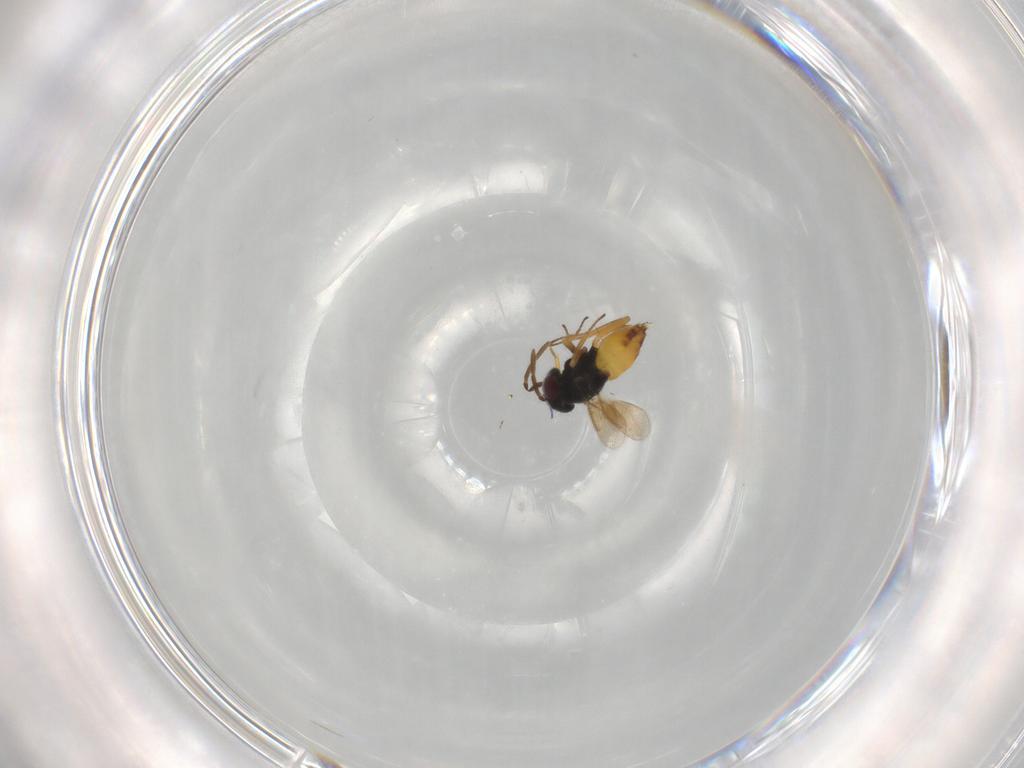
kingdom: Animalia
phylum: Arthropoda
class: Insecta
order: Hymenoptera
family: Aphelinidae
